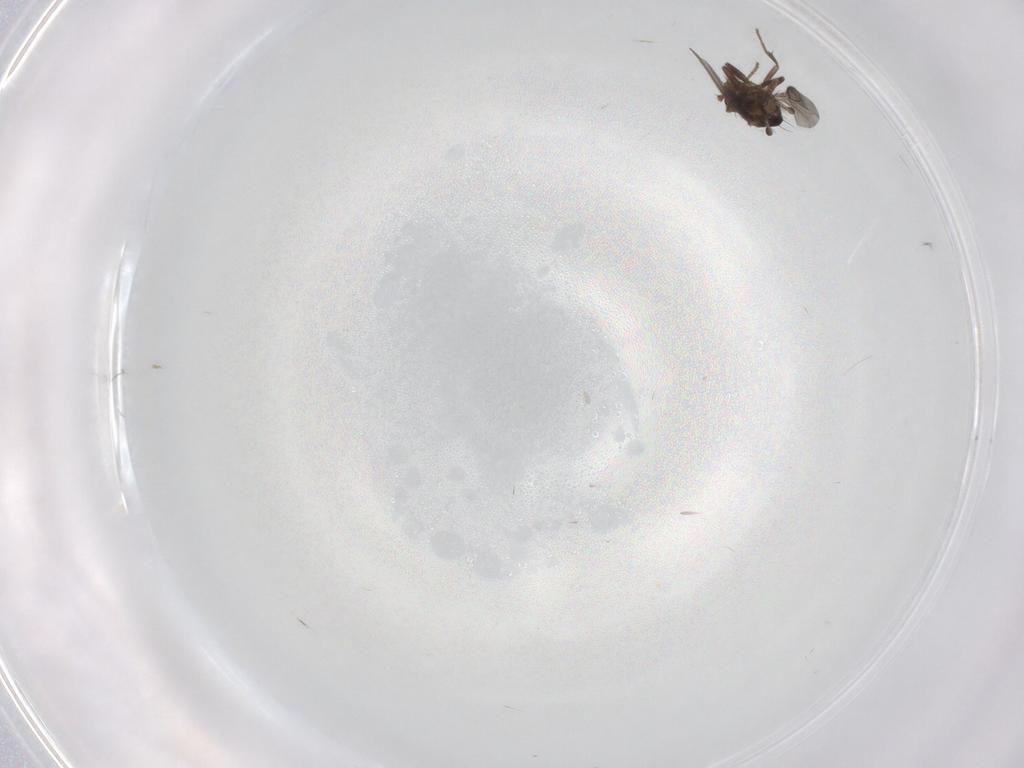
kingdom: Animalia
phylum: Arthropoda
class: Insecta
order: Diptera
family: Sphaeroceridae
